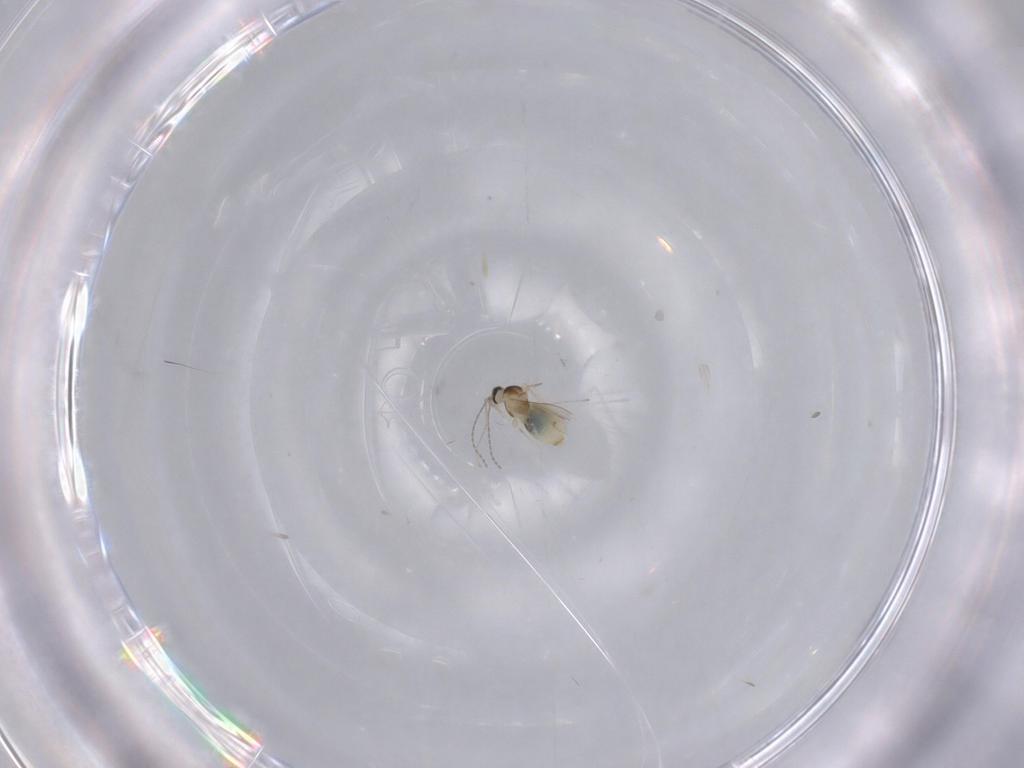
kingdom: Animalia
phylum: Arthropoda
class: Insecta
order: Diptera
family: Cecidomyiidae
